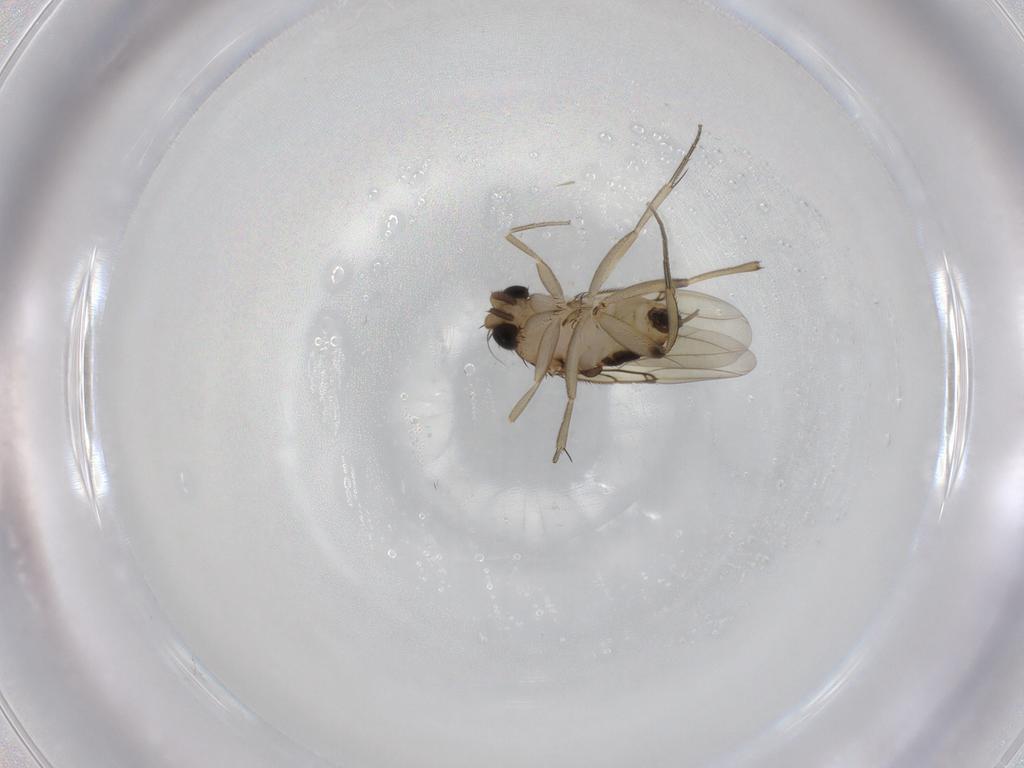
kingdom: Animalia
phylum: Arthropoda
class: Insecta
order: Diptera
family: Phoridae
